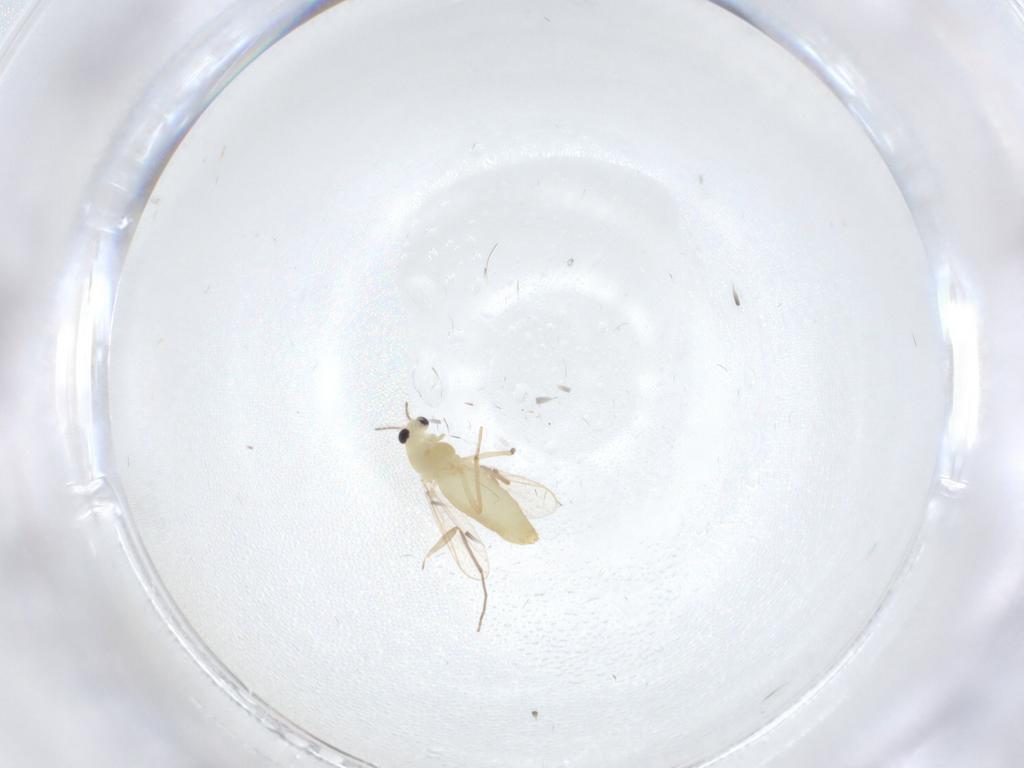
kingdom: Animalia
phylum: Arthropoda
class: Insecta
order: Diptera
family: Chironomidae
